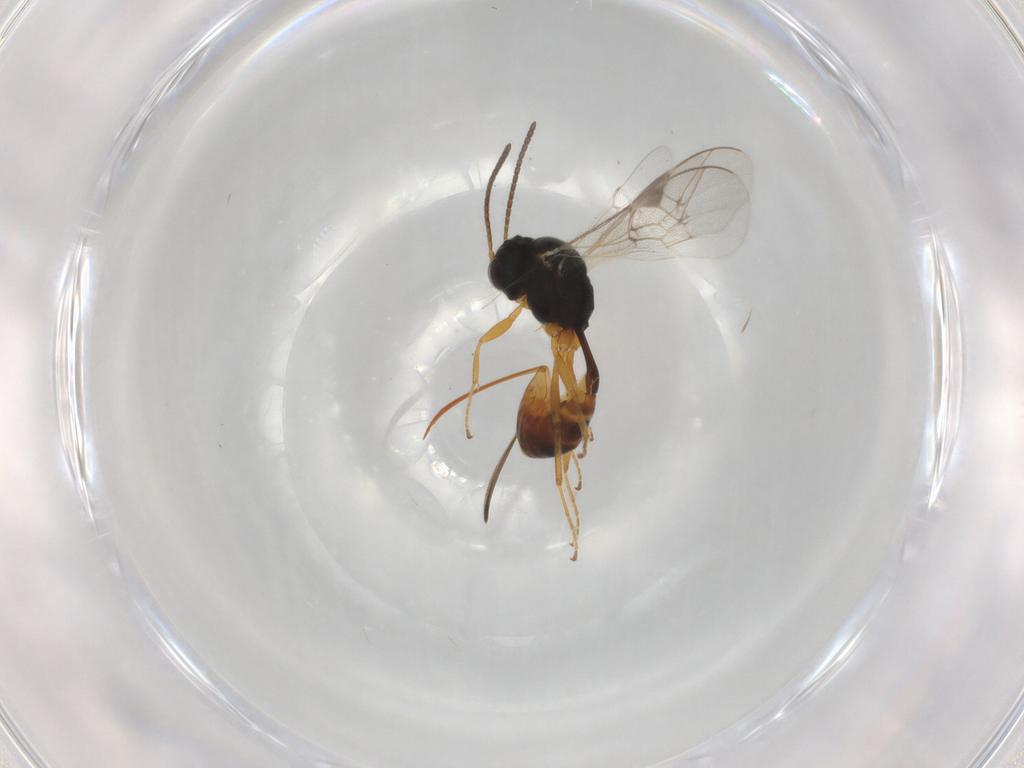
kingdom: Animalia
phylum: Arthropoda
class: Insecta
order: Hymenoptera
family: Ichneumonidae
